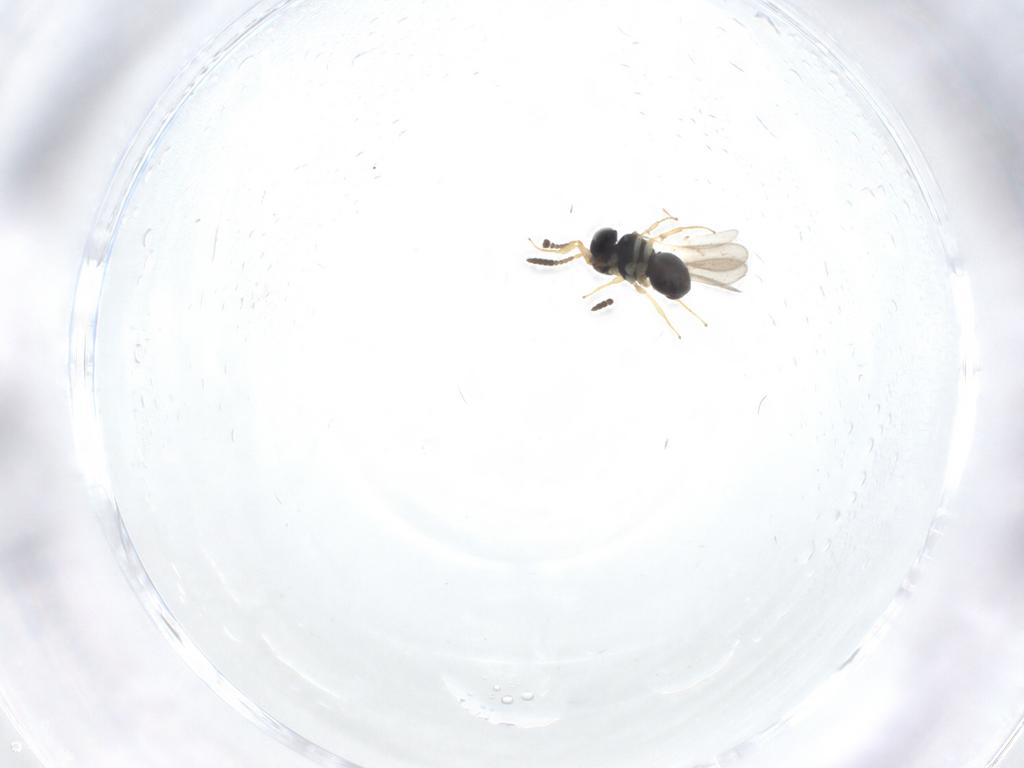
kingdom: Animalia
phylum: Arthropoda
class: Insecta
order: Hymenoptera
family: Scelionidae
